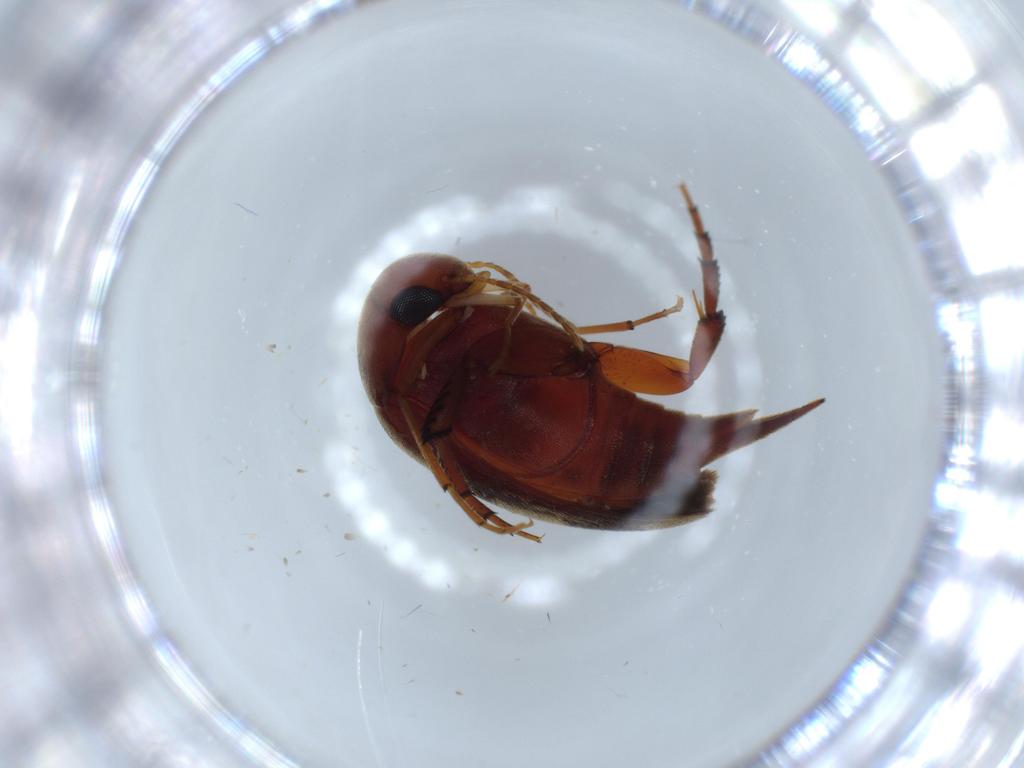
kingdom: Animalia
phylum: Arthropoda
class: Insecta
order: Coleoptera
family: Mordellidae
